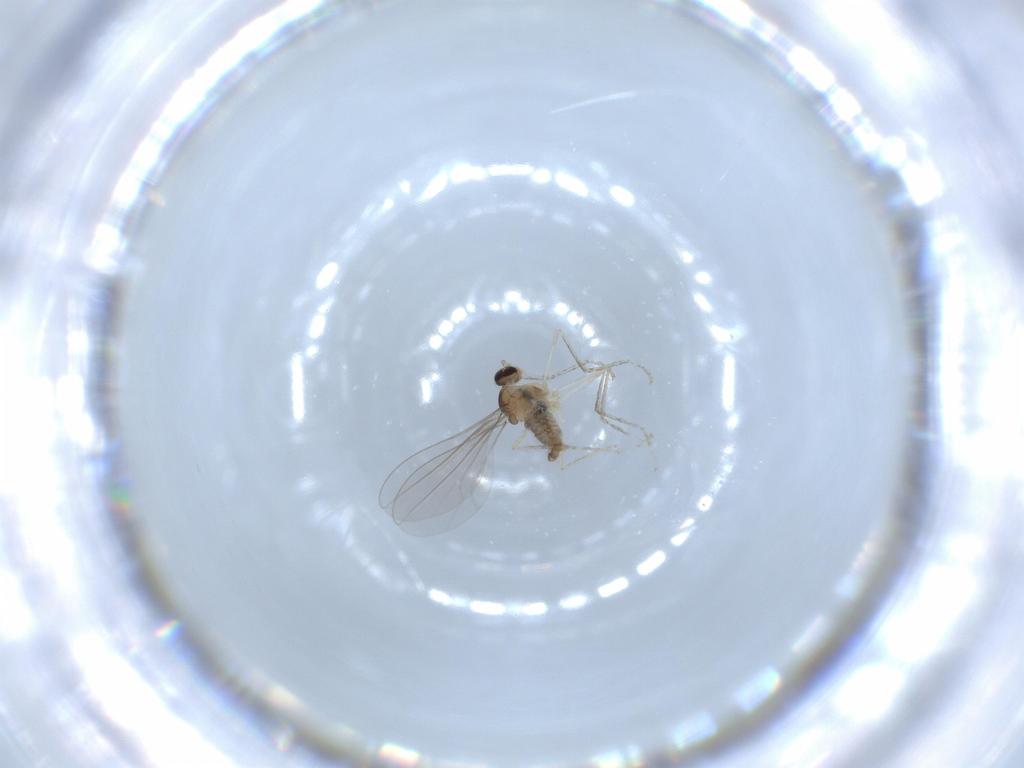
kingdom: Animalia
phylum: Arthropoda
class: Insecta
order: Diptera
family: Cecidomyiidae
